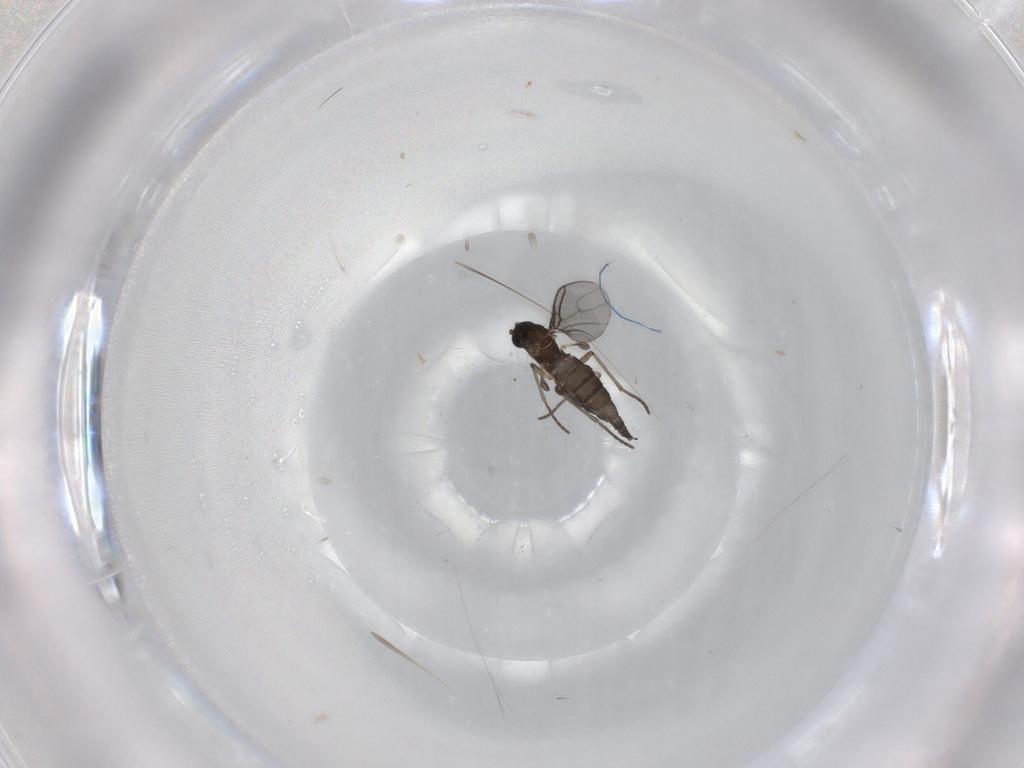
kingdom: Animalia
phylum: Arthropoda
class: Insecta
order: Diptera
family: Sciaridae
